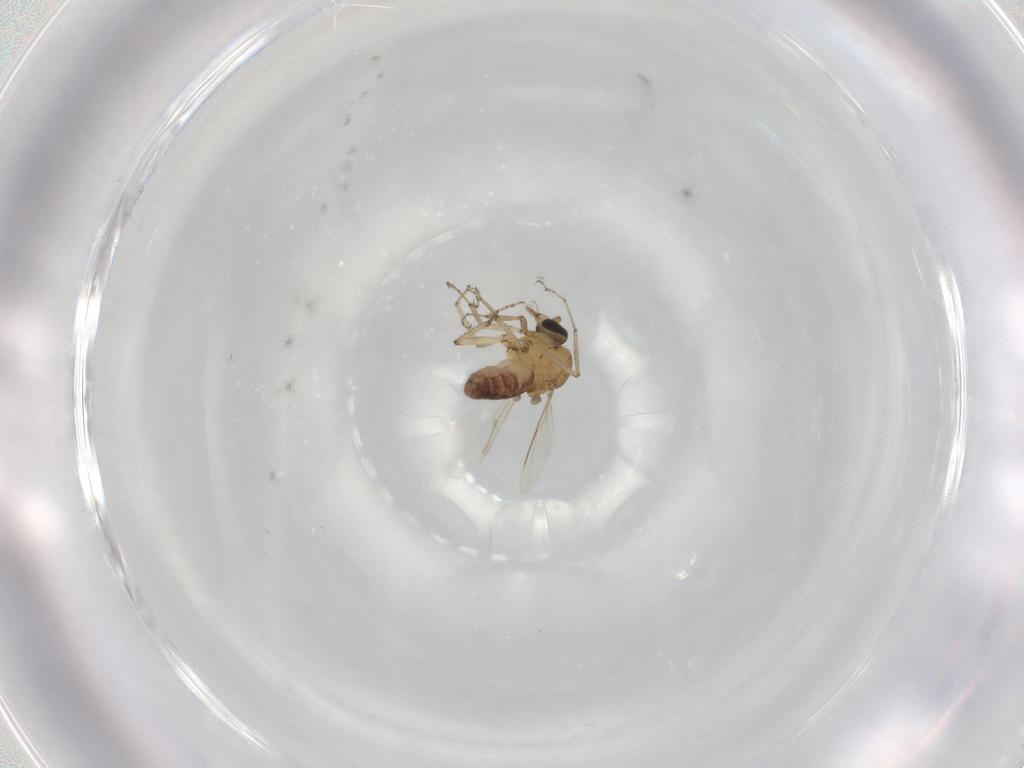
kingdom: Animalia
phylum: Arthropoda
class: Insecta
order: Diptera
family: Ceratopogonidae
